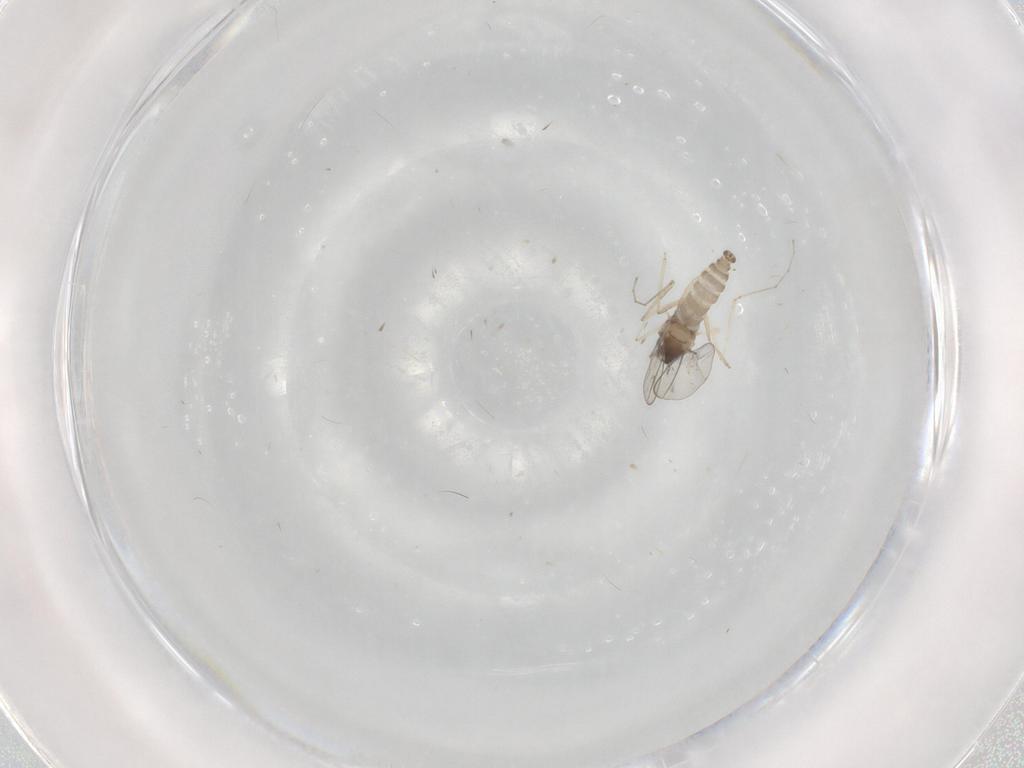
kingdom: Animalia
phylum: Arthropoda
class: Insecta
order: Diptera
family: Cecidomyiidae
